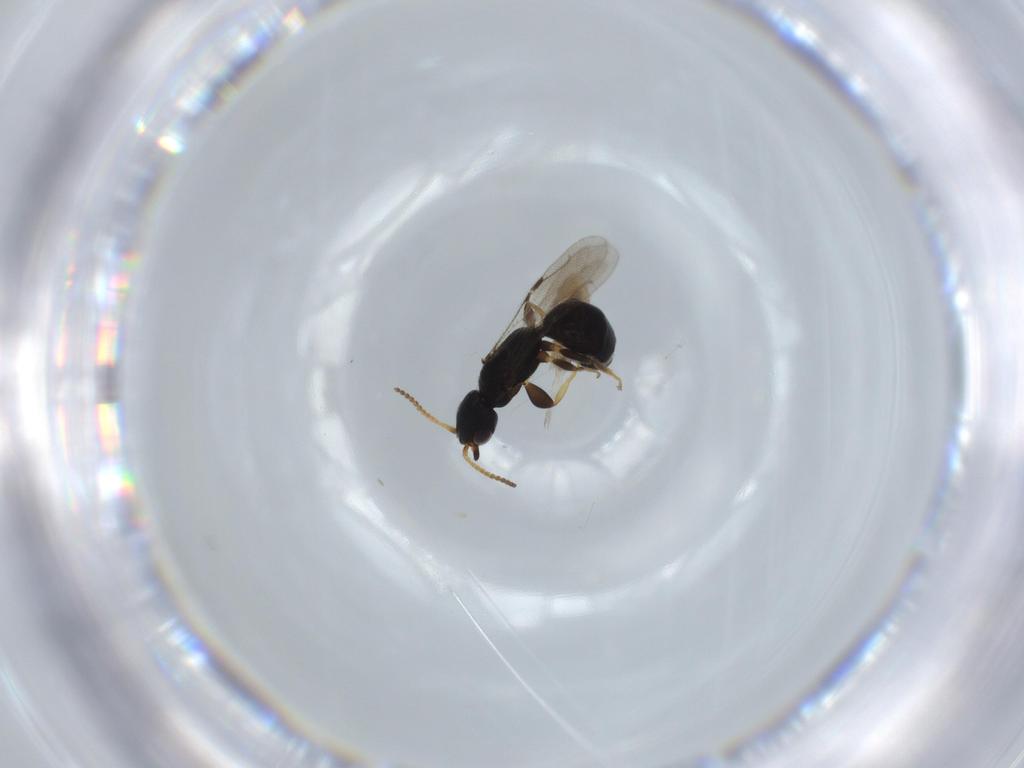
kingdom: Animalia
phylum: Arthropoda
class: Insecta
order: Hymenoptera
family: Bethylidae
